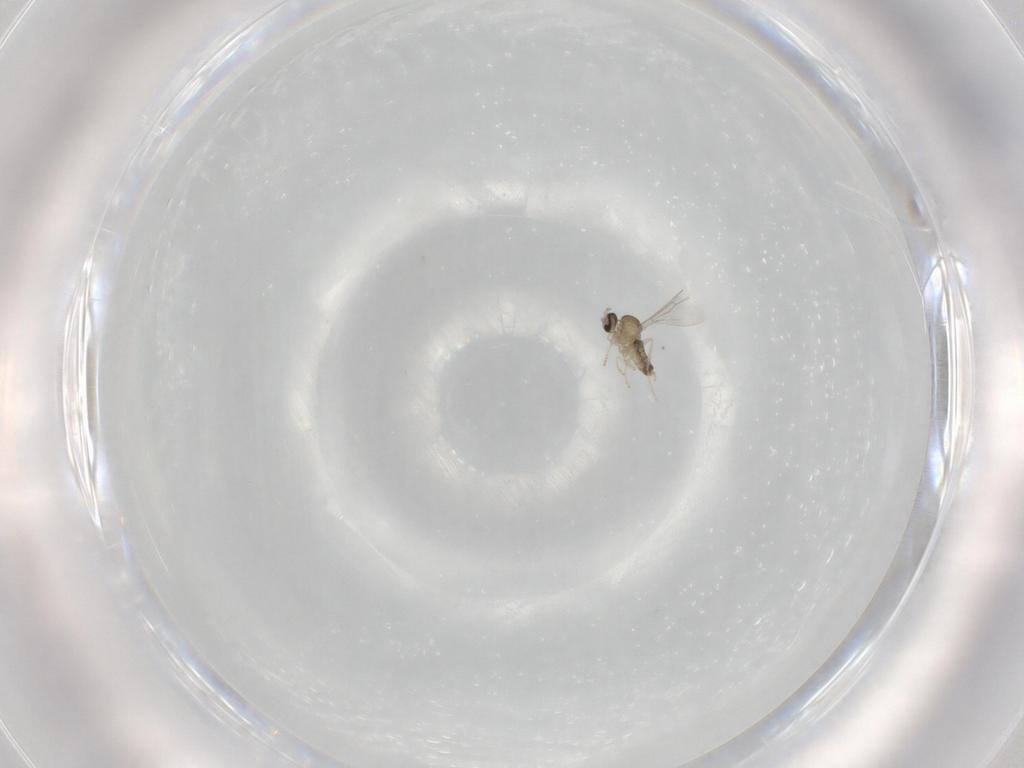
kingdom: Animalia
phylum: Arthropoda
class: Insecta
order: Diptera
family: Cecidomyiidae
